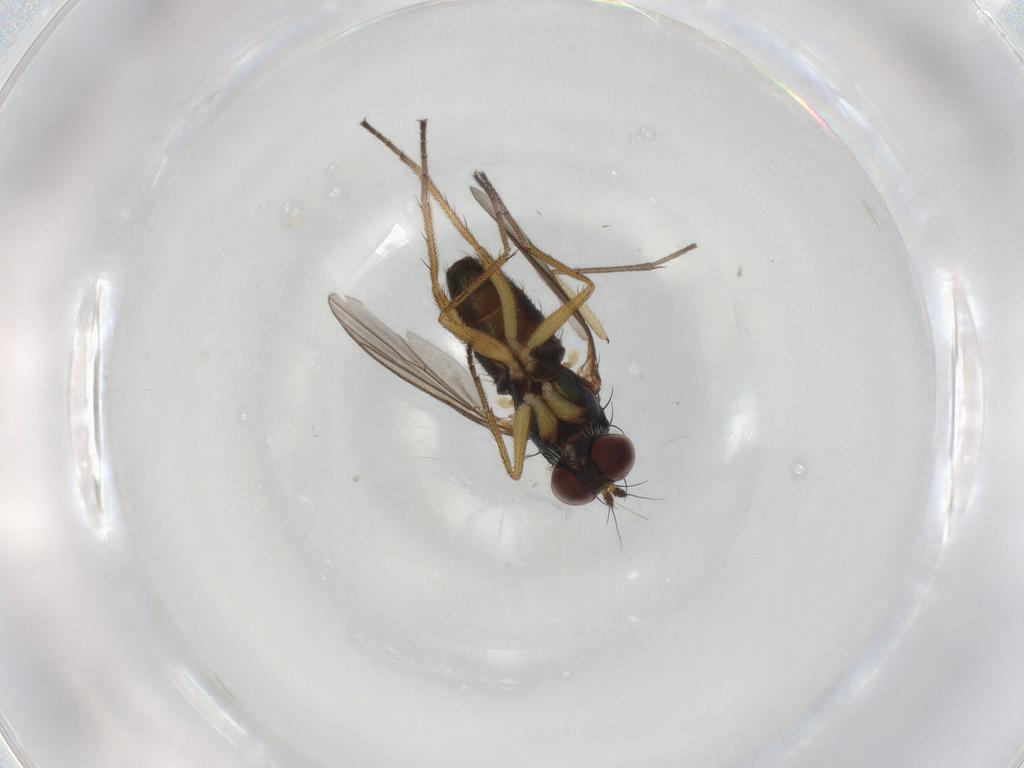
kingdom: Animalia
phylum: Arthropoda
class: Insecta
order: Diptera
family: Sciaridae
